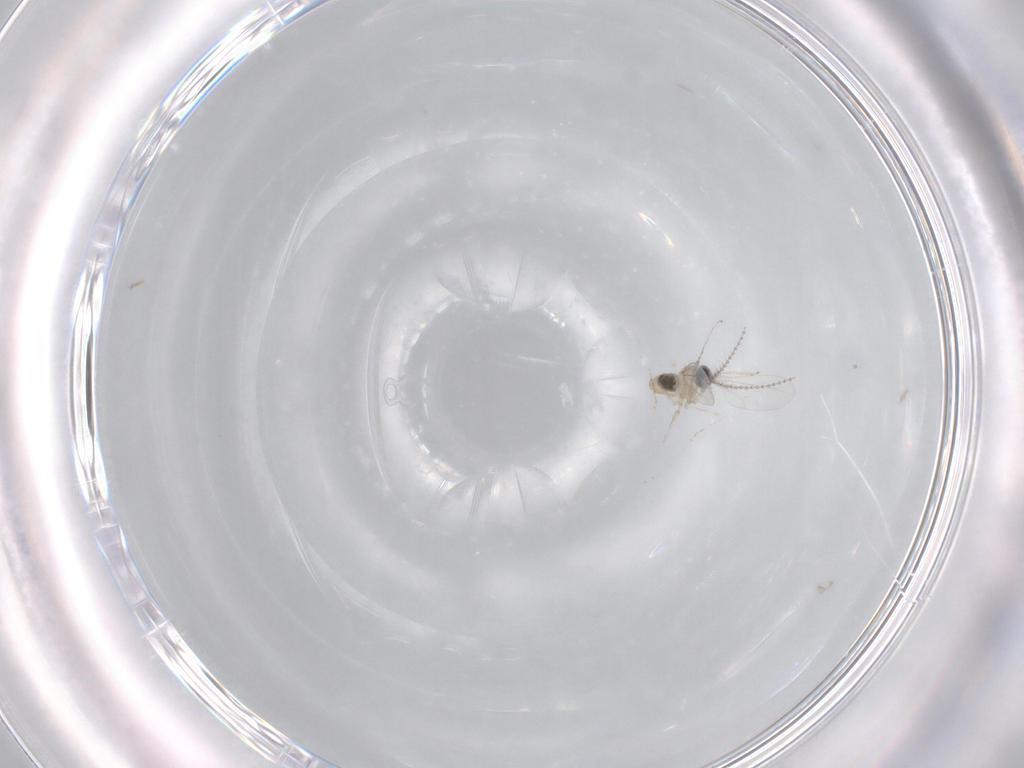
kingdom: Animalia
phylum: Arthropoda
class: Insecta
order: Diptera
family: Cecidomyiidae
